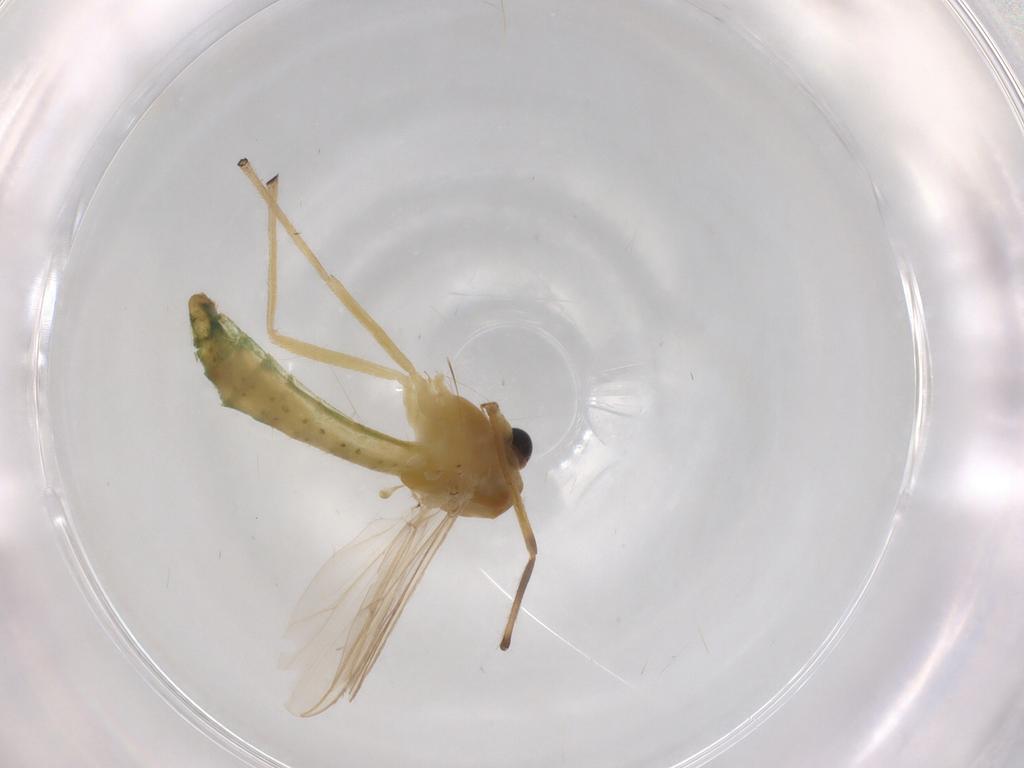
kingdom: Animalia
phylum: Arthropoda
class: Insecta
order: Diptera
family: Chironomidae
